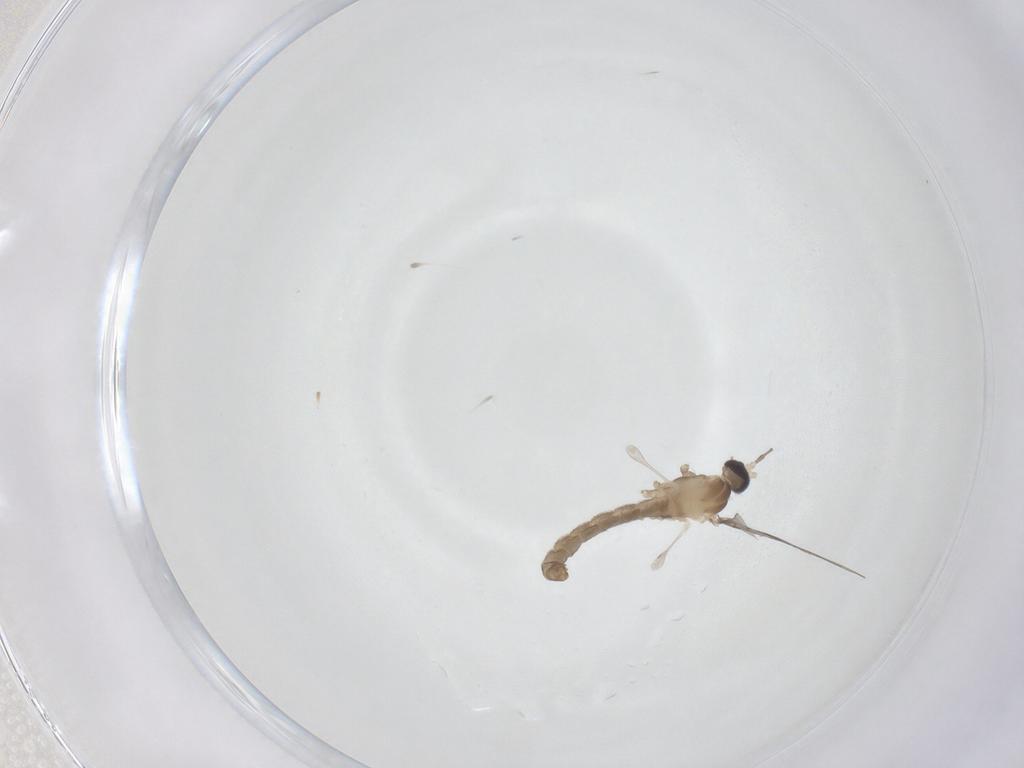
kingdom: Animalia
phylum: Arthropoda
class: Insecta
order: Diptera
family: Cecidomyiidae
